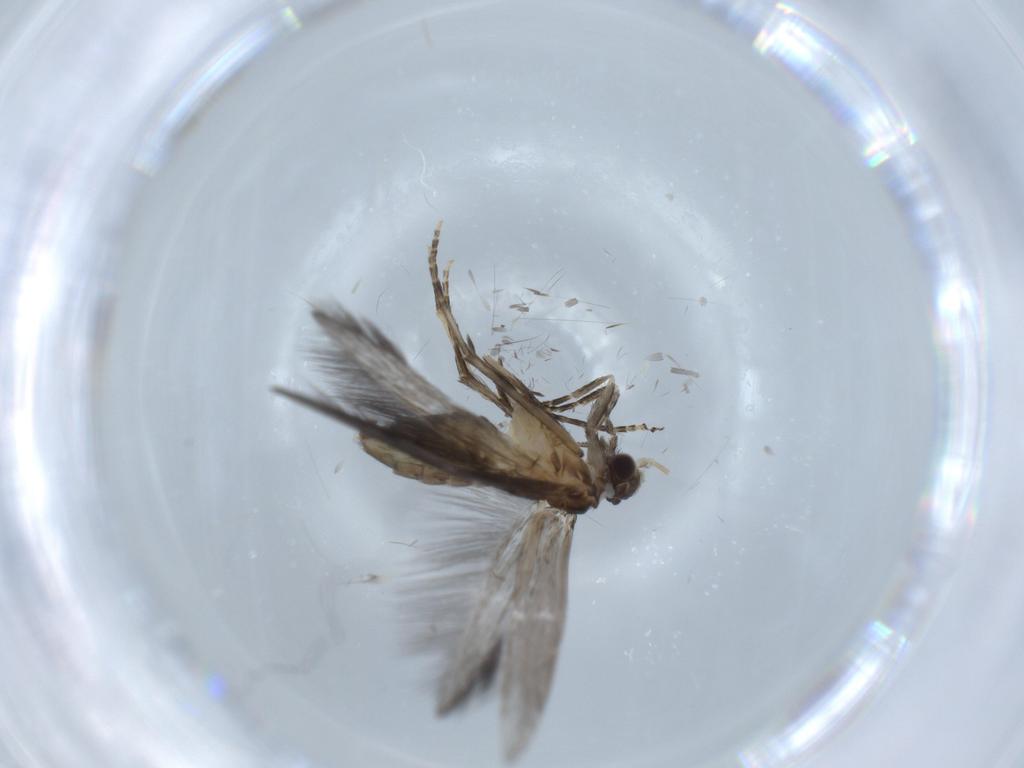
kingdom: Animalia
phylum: Arthropoda
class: Insecta
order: Trichoptera
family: Hydroptilidae
